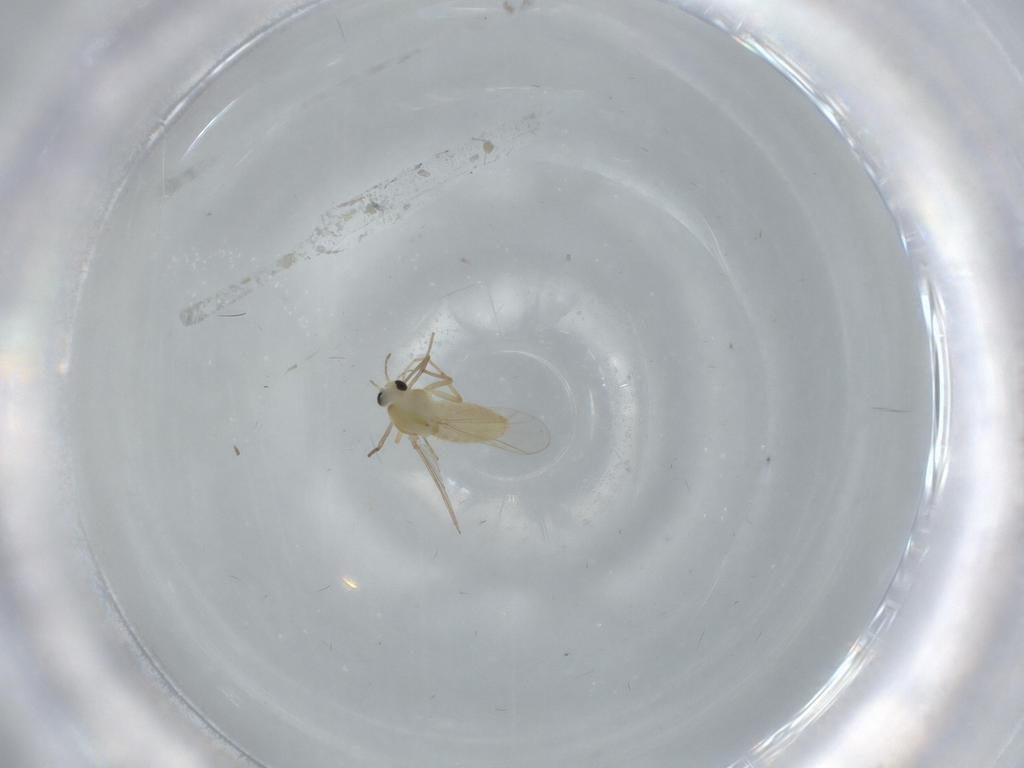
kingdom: Animalia
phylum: Arthropoda
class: Insecta
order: Diptera
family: Chironomidae
